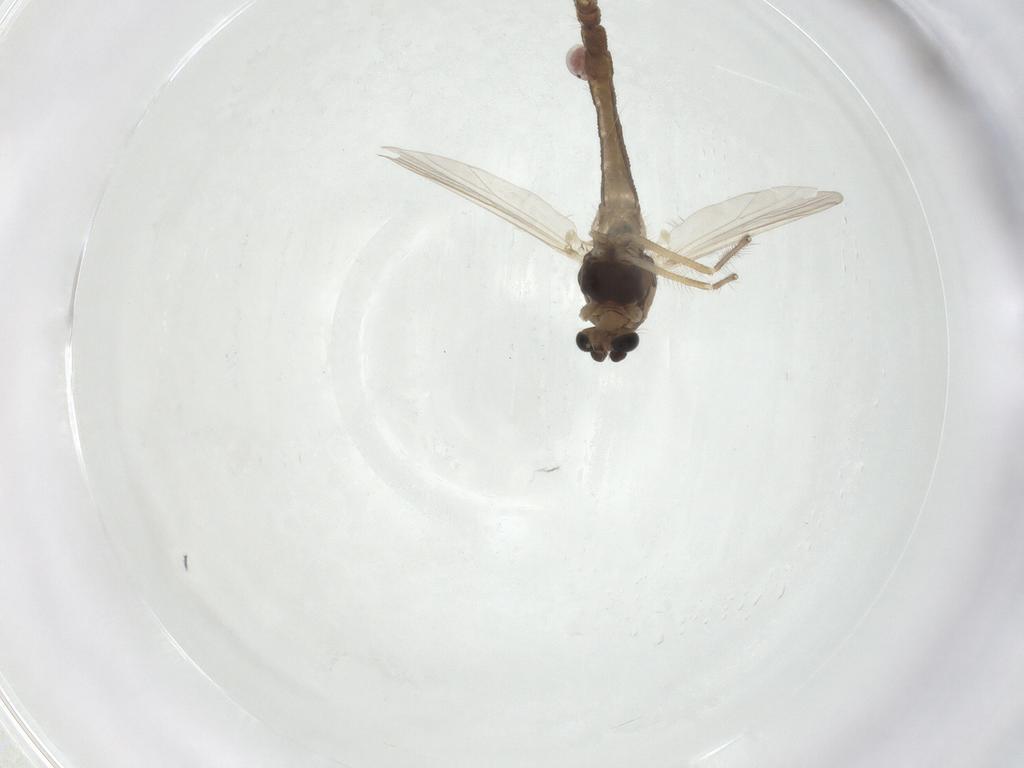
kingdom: Animalia
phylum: Arthropoda
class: Insecta
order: Diptera
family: Chironomidae
